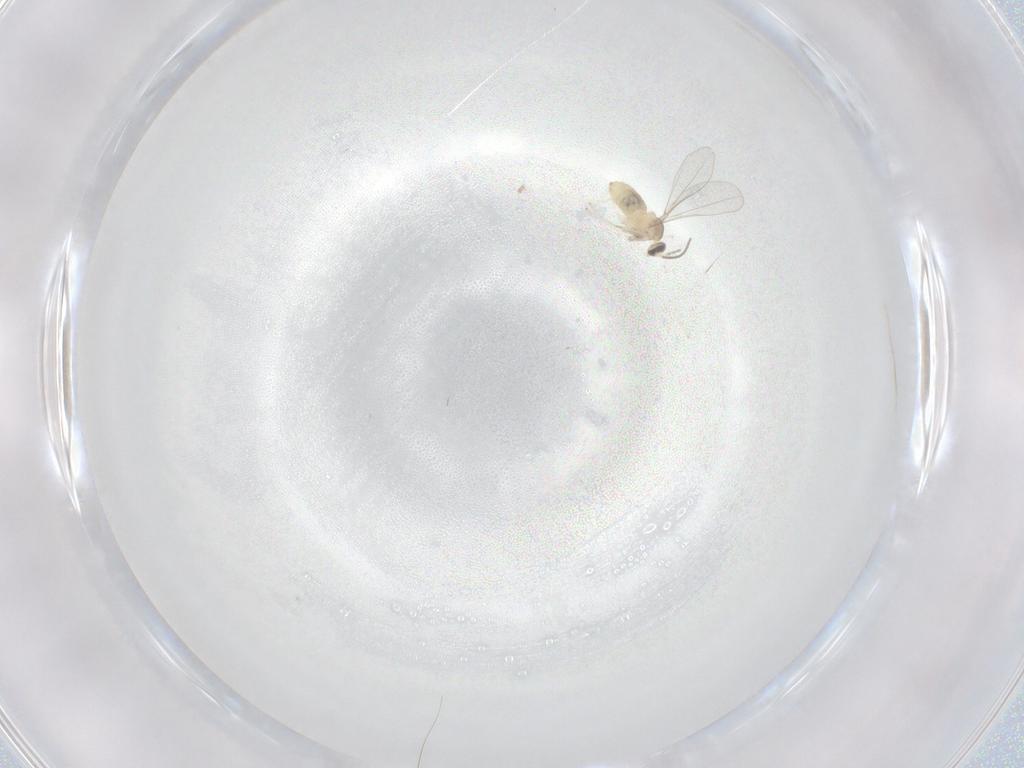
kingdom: Animalia
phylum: Arthropoda
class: Insecta
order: Diptera
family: Cecidomyiidae
